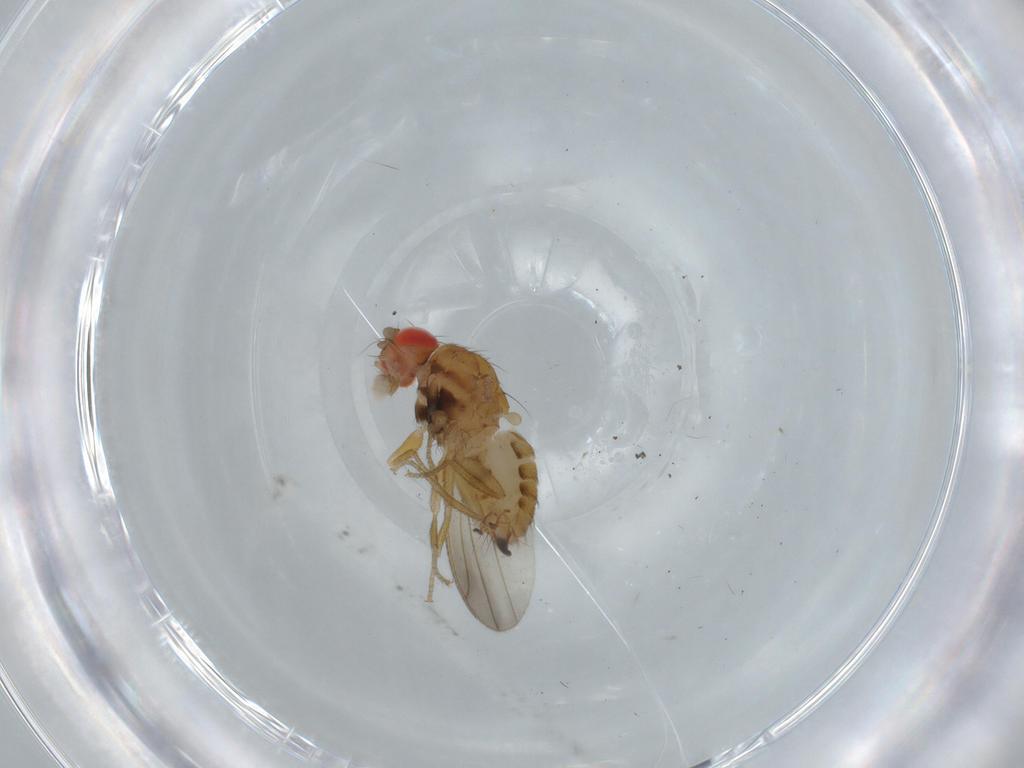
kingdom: Animalia
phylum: Arthropoda
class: Insecta
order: Diptera
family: Drosophilidae
